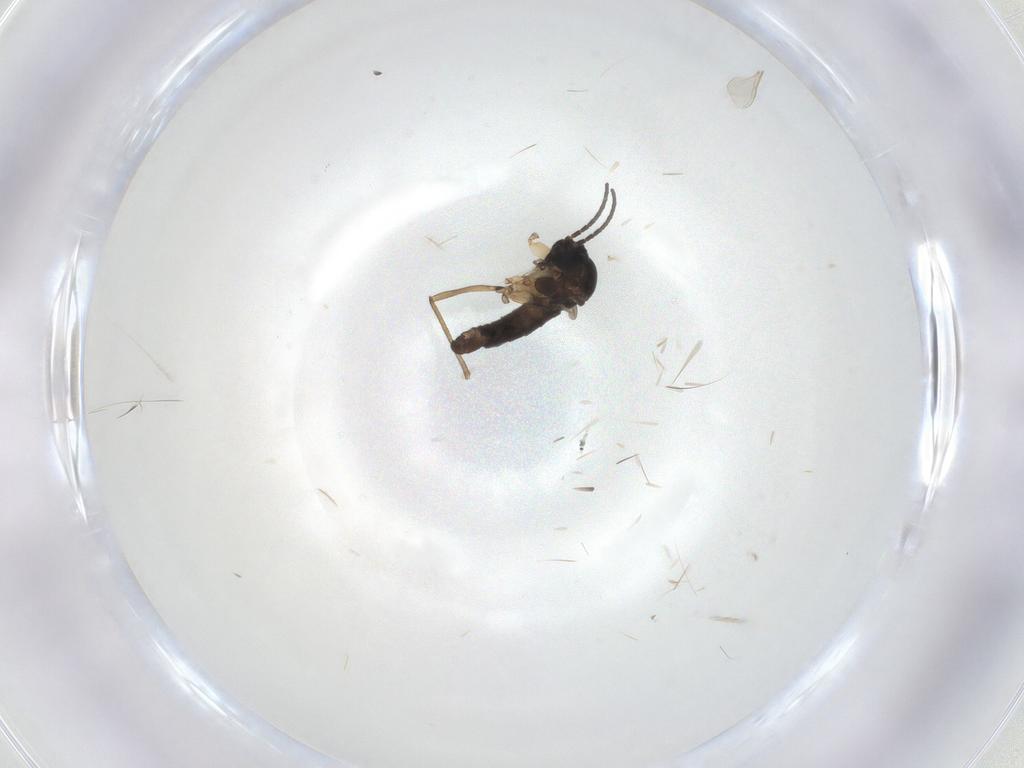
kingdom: Animalia
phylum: Arthropoda
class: Insecta
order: Diptera
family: Sciaridae
